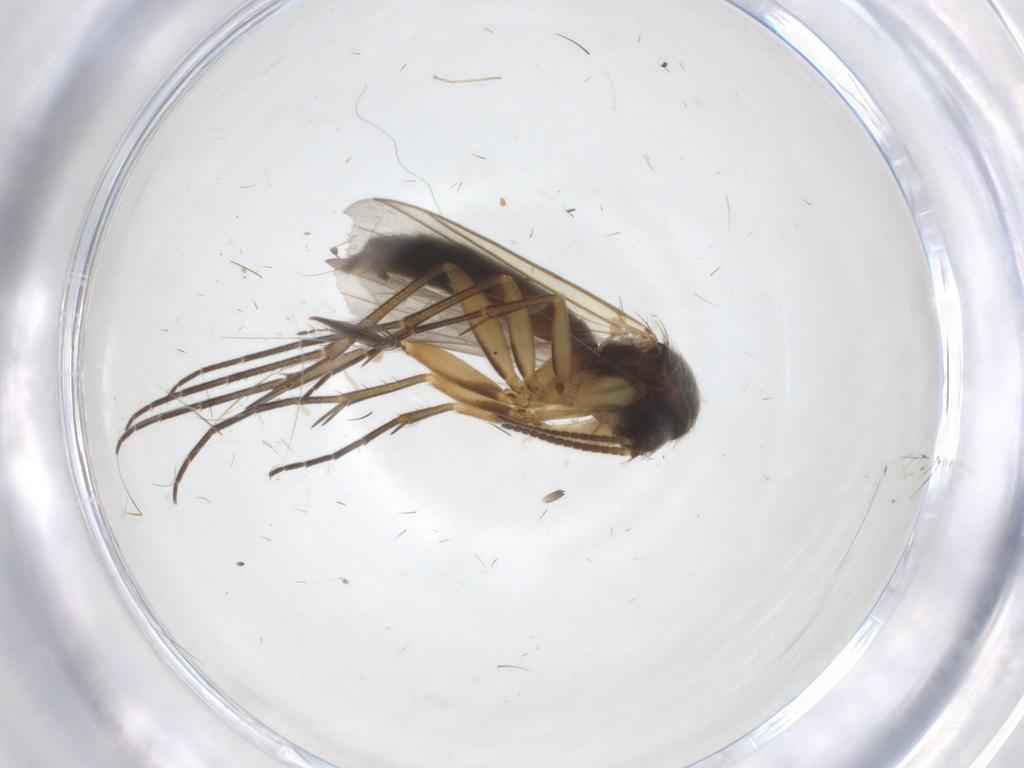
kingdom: Animalia
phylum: Arthropoda
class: Insecta
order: Diptera
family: Ceratopogonidae
